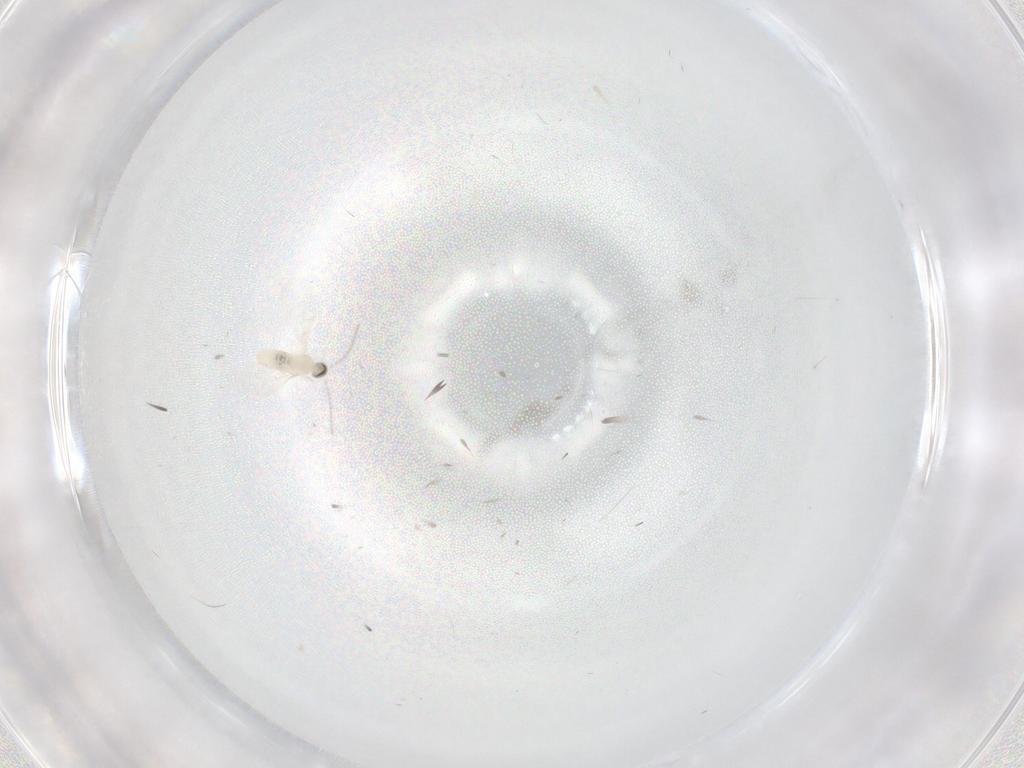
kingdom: Animalia
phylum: Arthropoda
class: Insecta
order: Diptera
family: Cecidomyiidae
